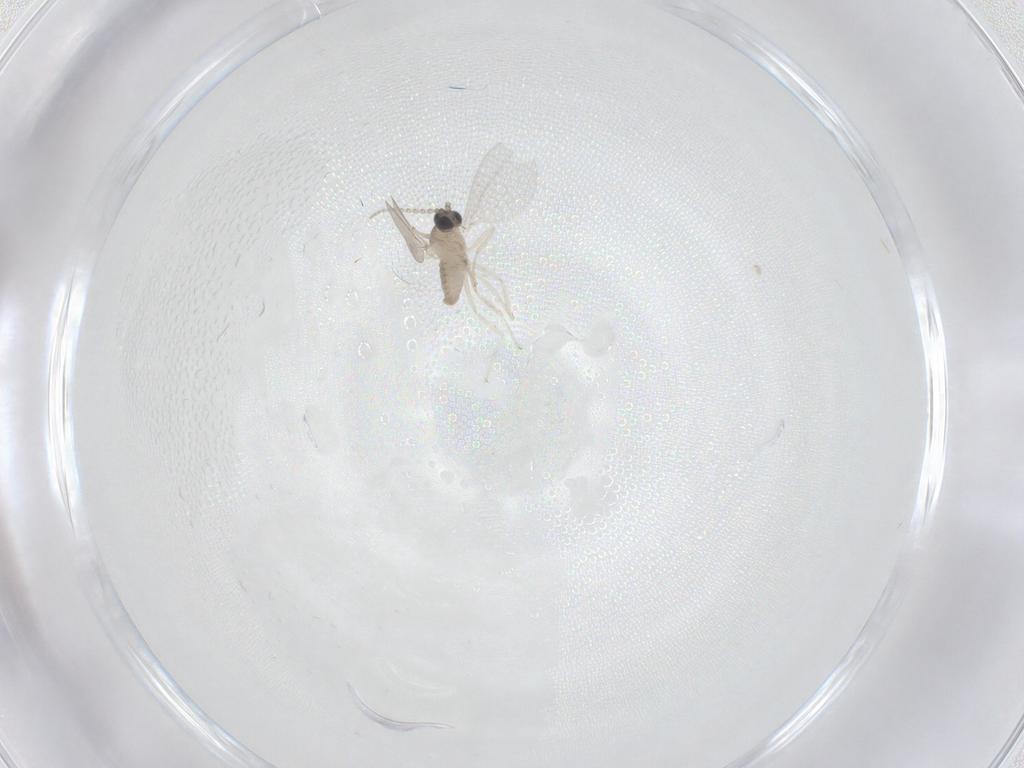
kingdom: Animalia
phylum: Arthropoda
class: Insecta
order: Diptera
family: Cecidomyiidae
